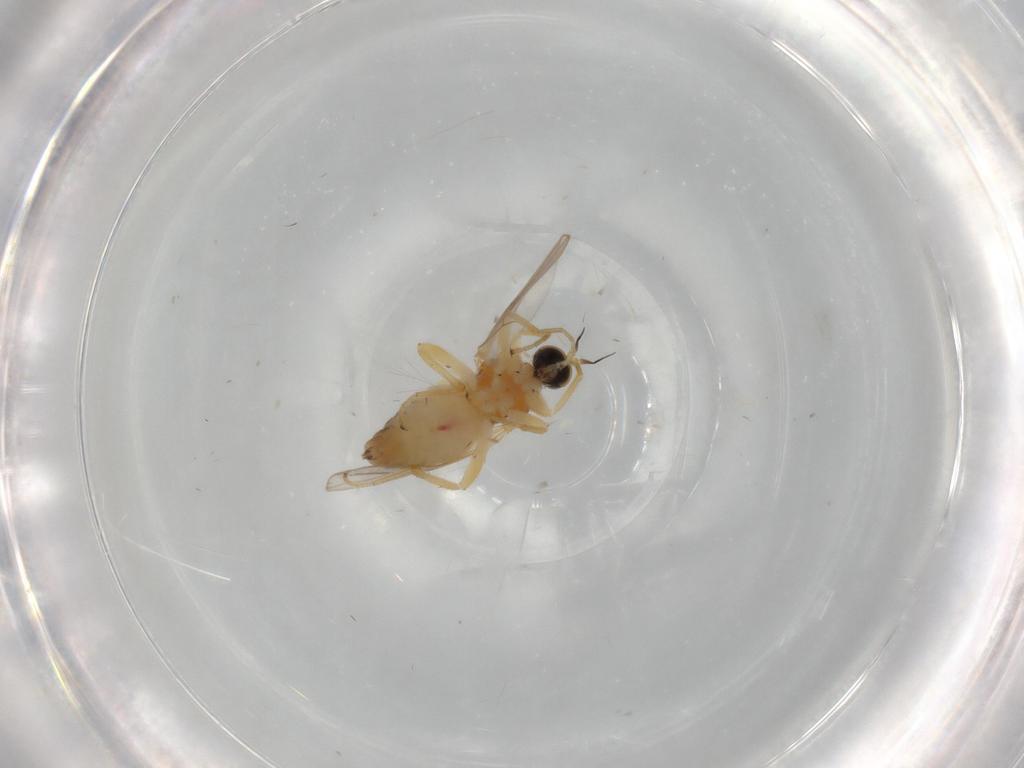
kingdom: Animalia
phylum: Arthropoda
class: Insecta
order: Diptera
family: Hybotidae
